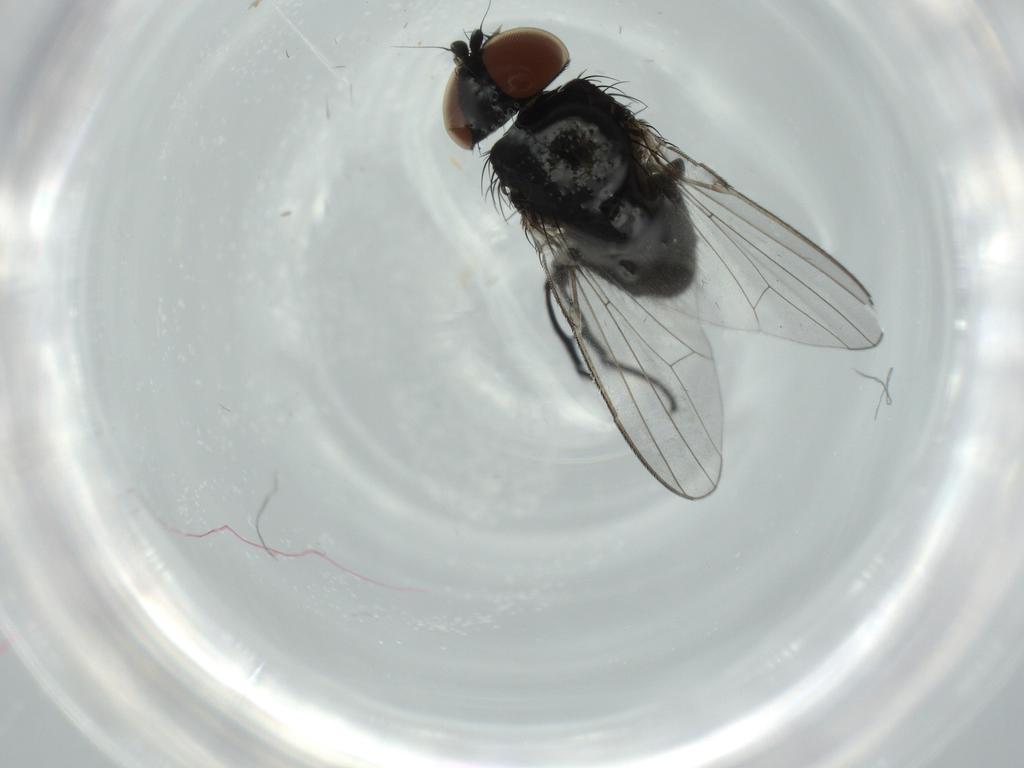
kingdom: Animalia
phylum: Arthropoda
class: Insecta
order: Diptera
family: Milichiidae
